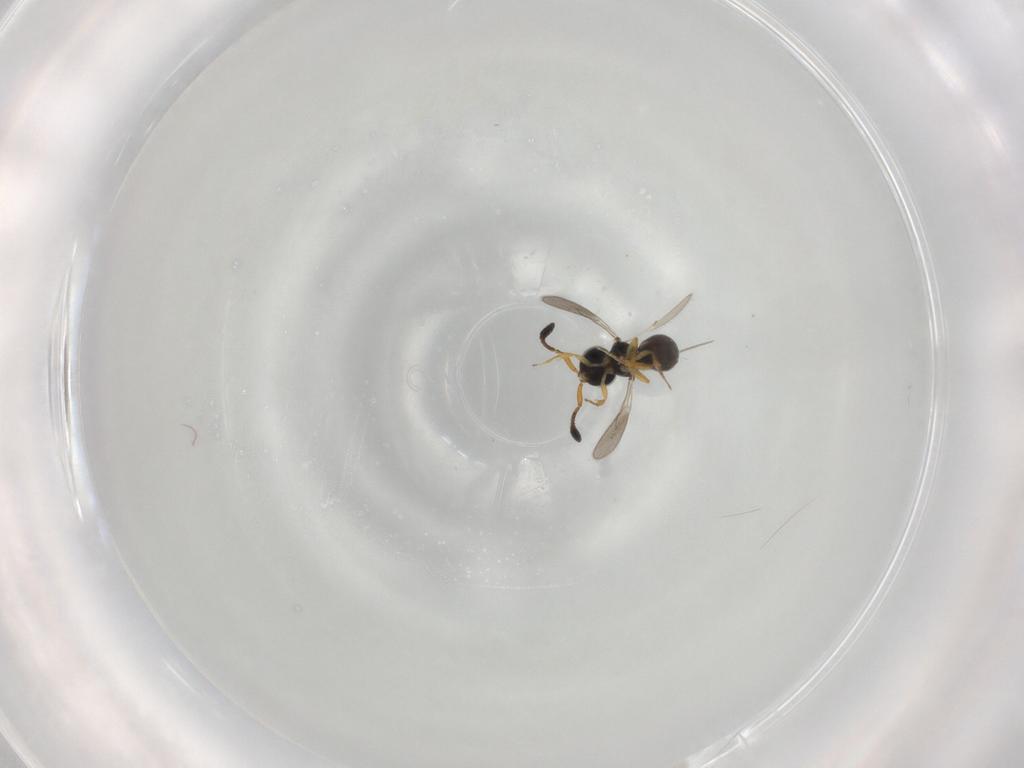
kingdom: Animalia
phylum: Arthropoda
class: Insecta
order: Hymenoptera
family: Scelionidae
